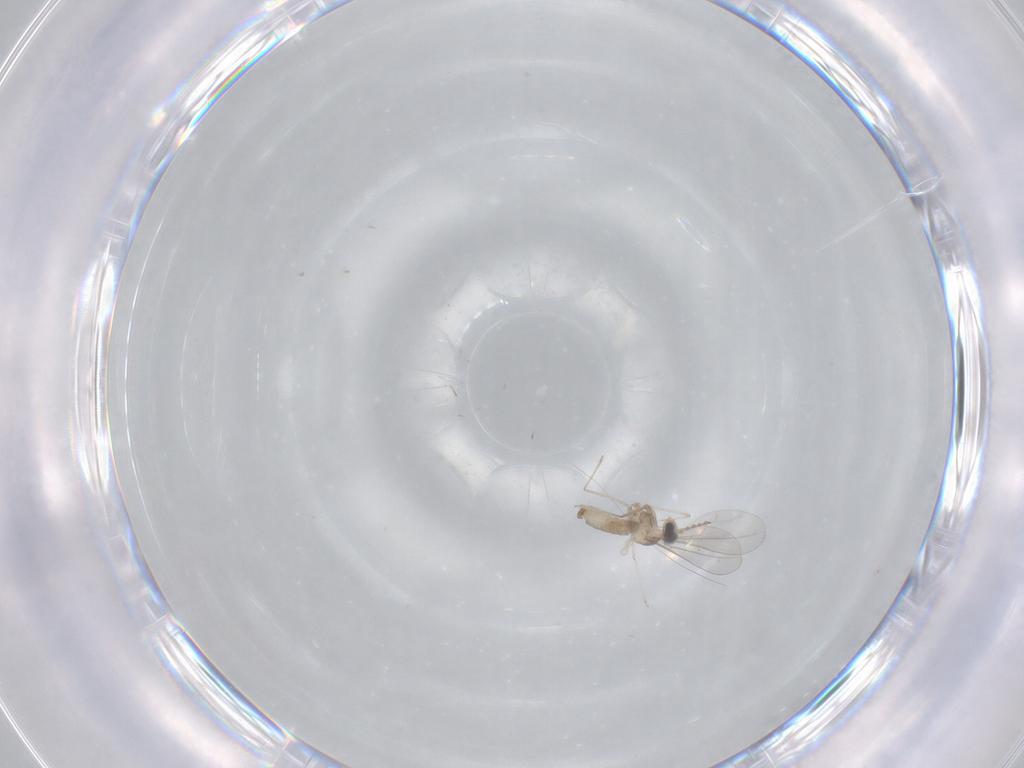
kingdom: Animalia
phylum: Arthropoda
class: Insecta
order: Diptera
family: Cecidomyiidae
